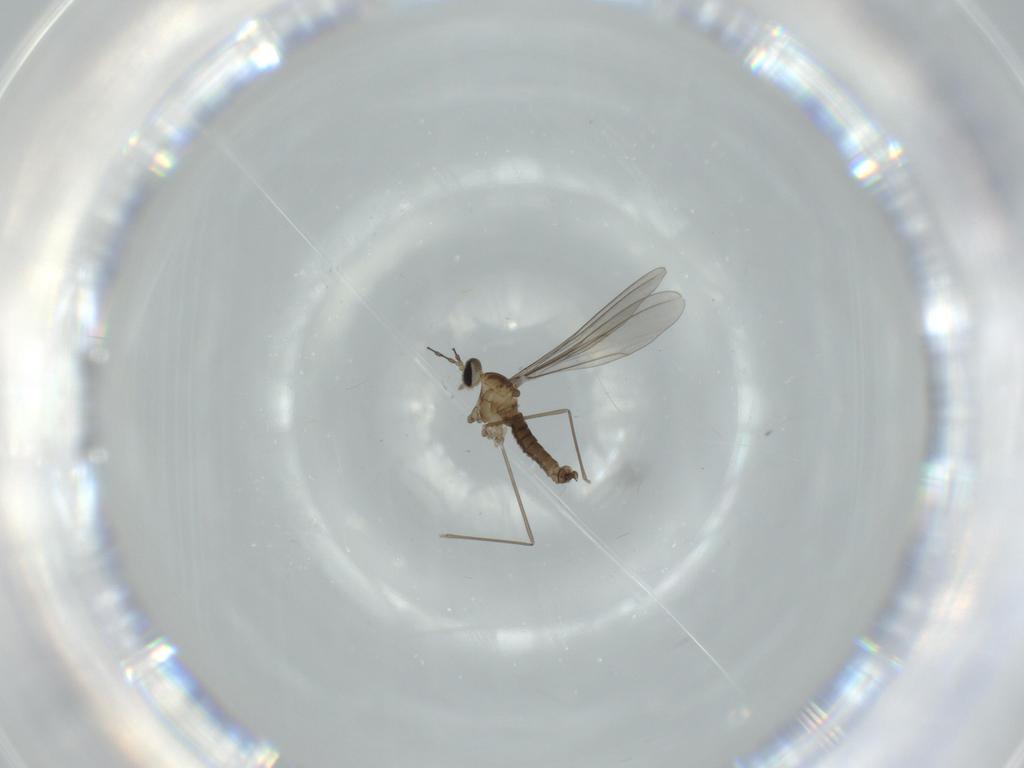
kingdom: Animalia
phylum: Arthropoda
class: Insecta
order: Diptera
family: Cecidomyiidae
